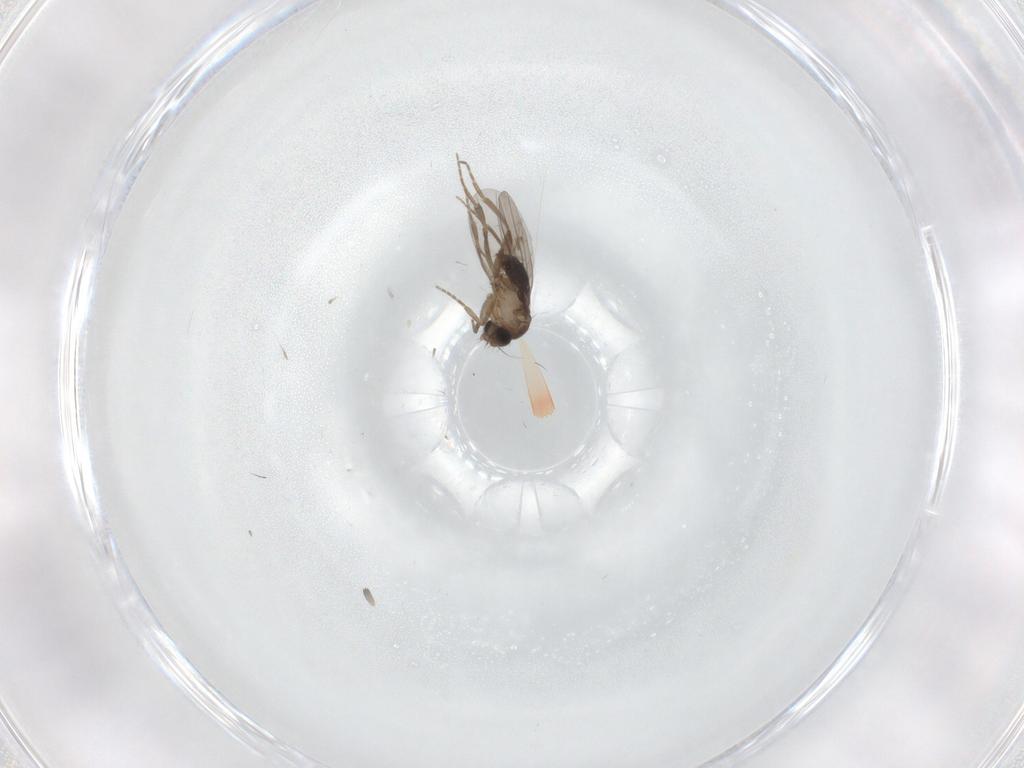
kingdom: Animalia
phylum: Arthropoda
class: Insecta
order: Diptera
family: Phoridae
